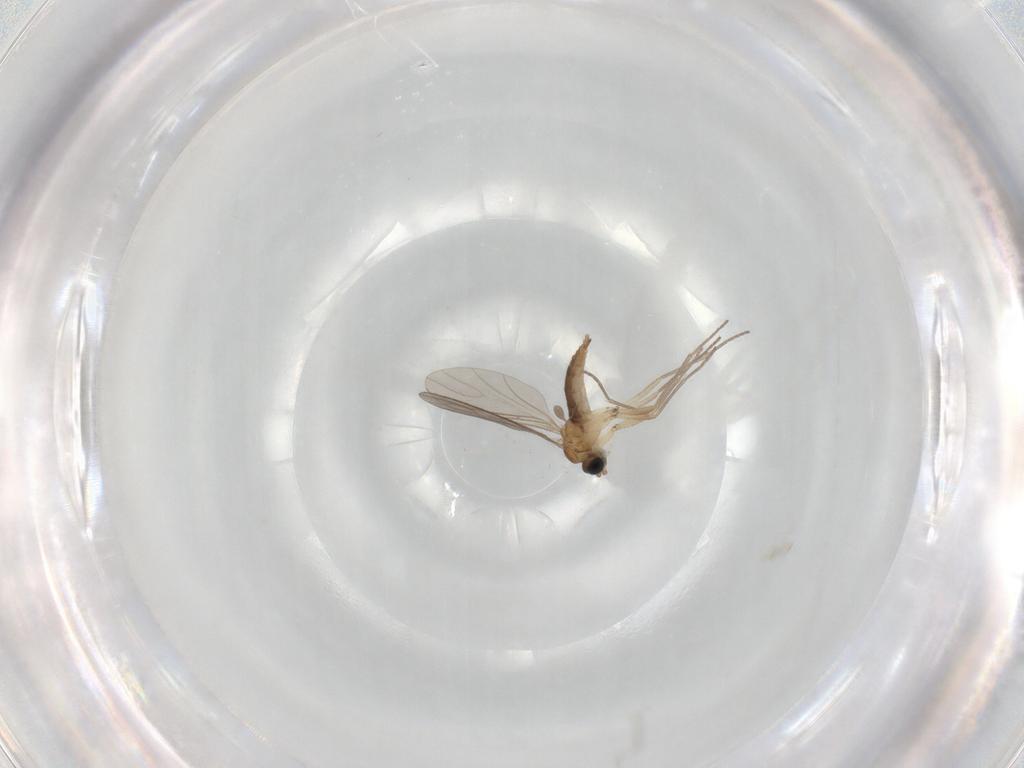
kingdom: Animalia
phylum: Arthropoda
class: Insecta
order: Diptera
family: Sciaridae
